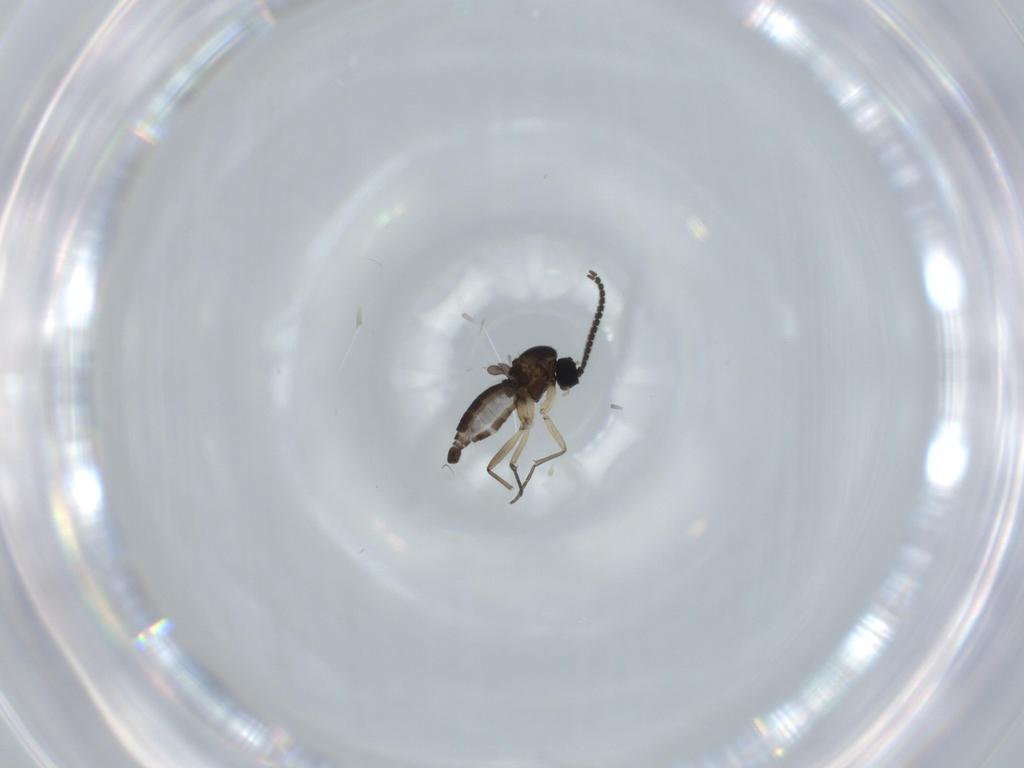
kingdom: Animalia
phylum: Arthropoda
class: Insecta
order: Diptera
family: Sciaridae
